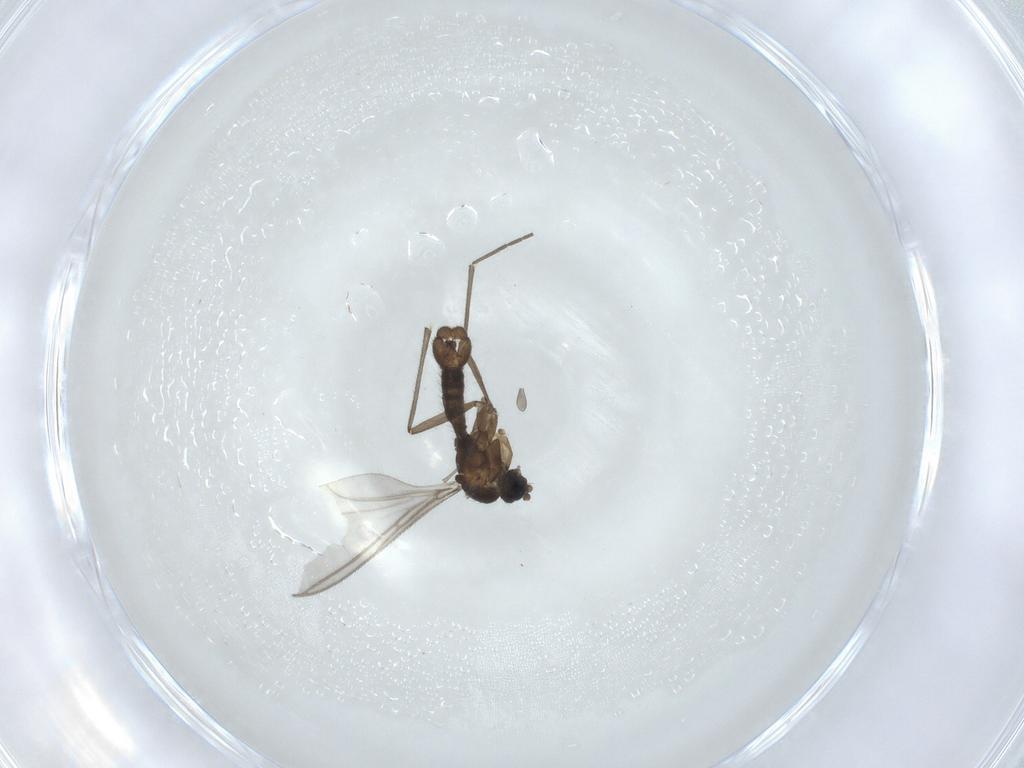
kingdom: Animalia
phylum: Arthropoda
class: Insecta
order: Diptera
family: Sciaridae
